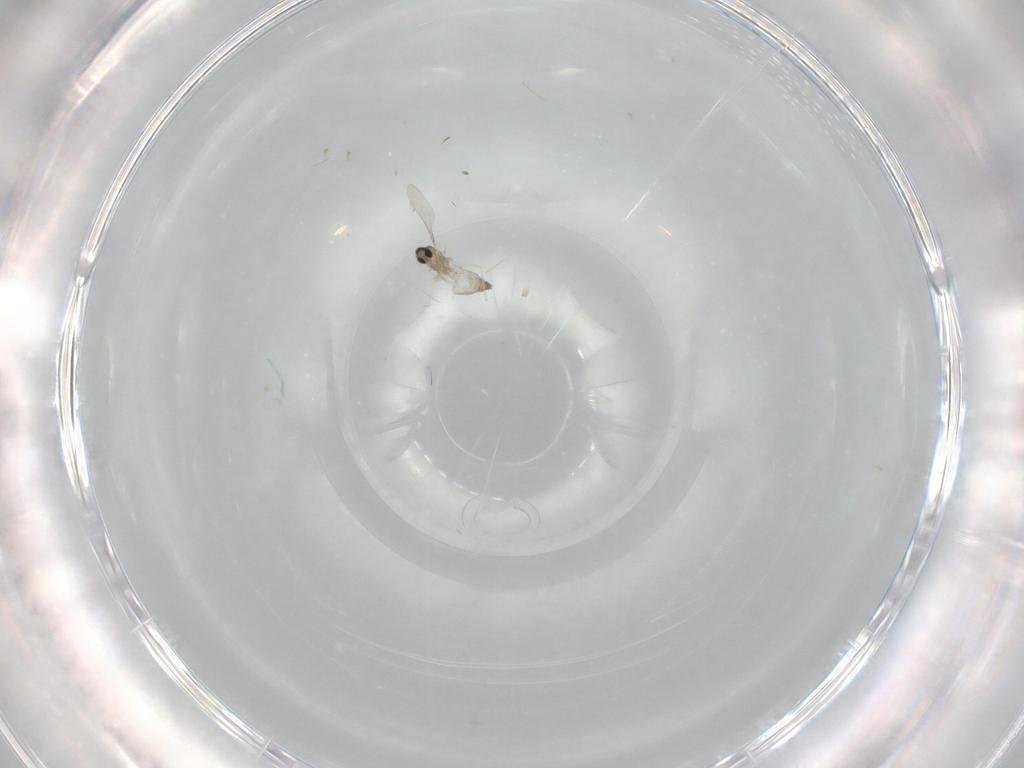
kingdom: Animalia
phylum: Arthropoda
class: Insecta
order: Diptera
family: Cecidomyiidae
